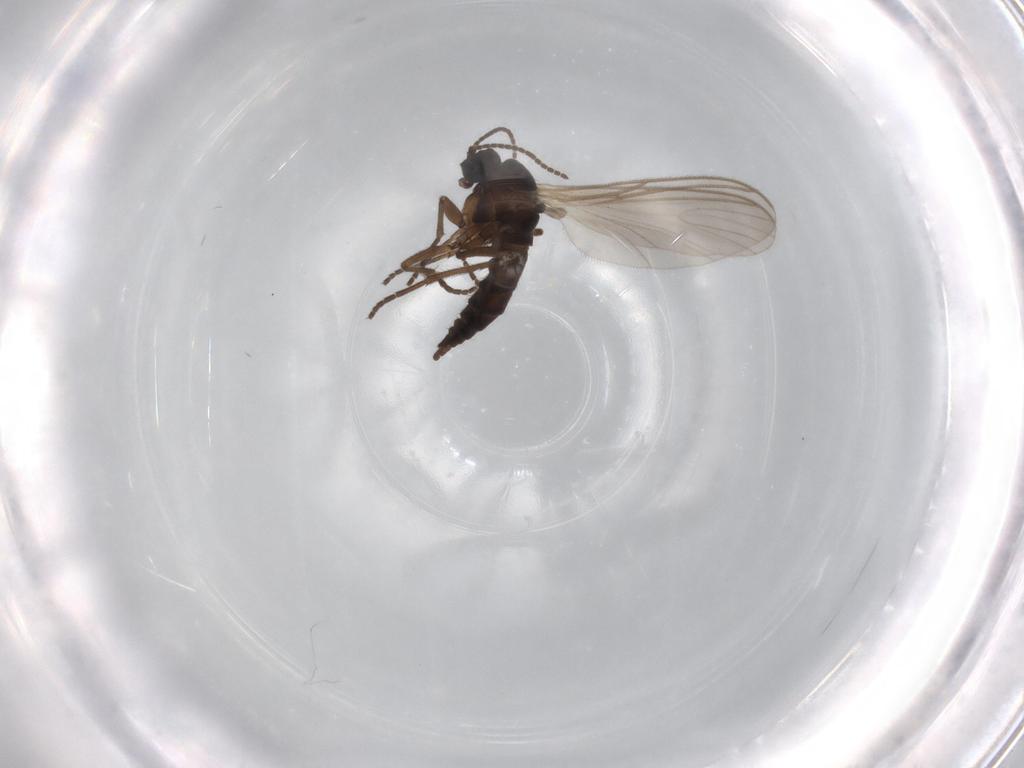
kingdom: Animalia
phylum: Arthropoda
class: Insecta
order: Diptera
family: Sciaridae
